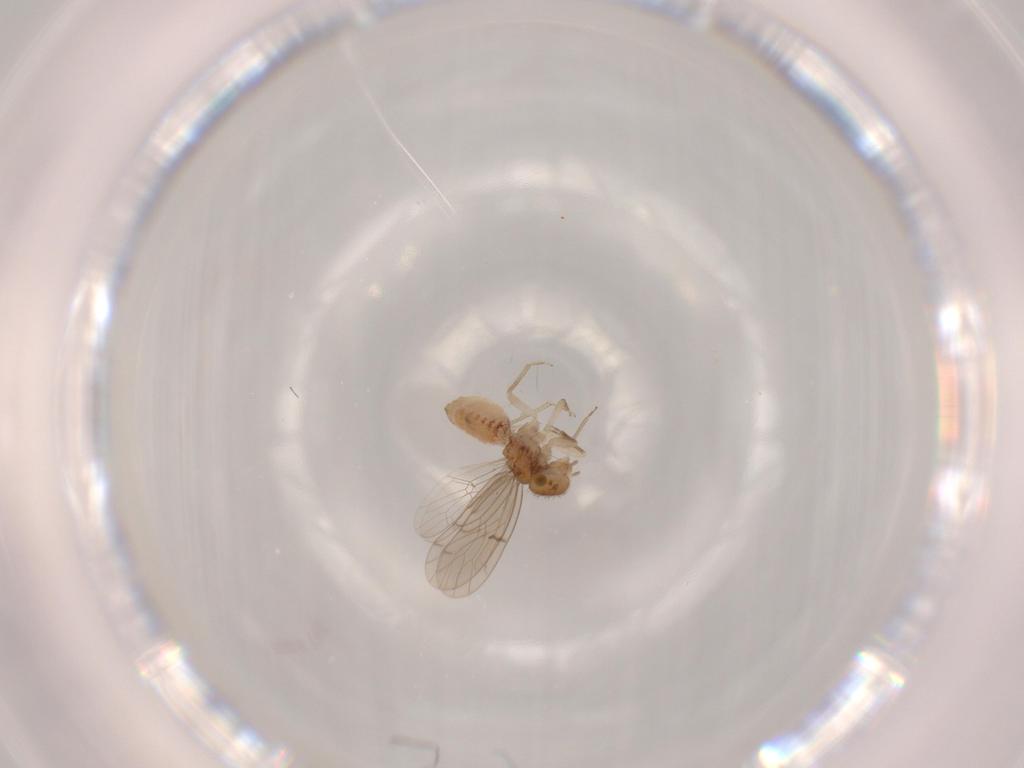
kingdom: Animalia
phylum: Arthropoda
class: Insecta
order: Psocodea
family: Ectopsocidae
